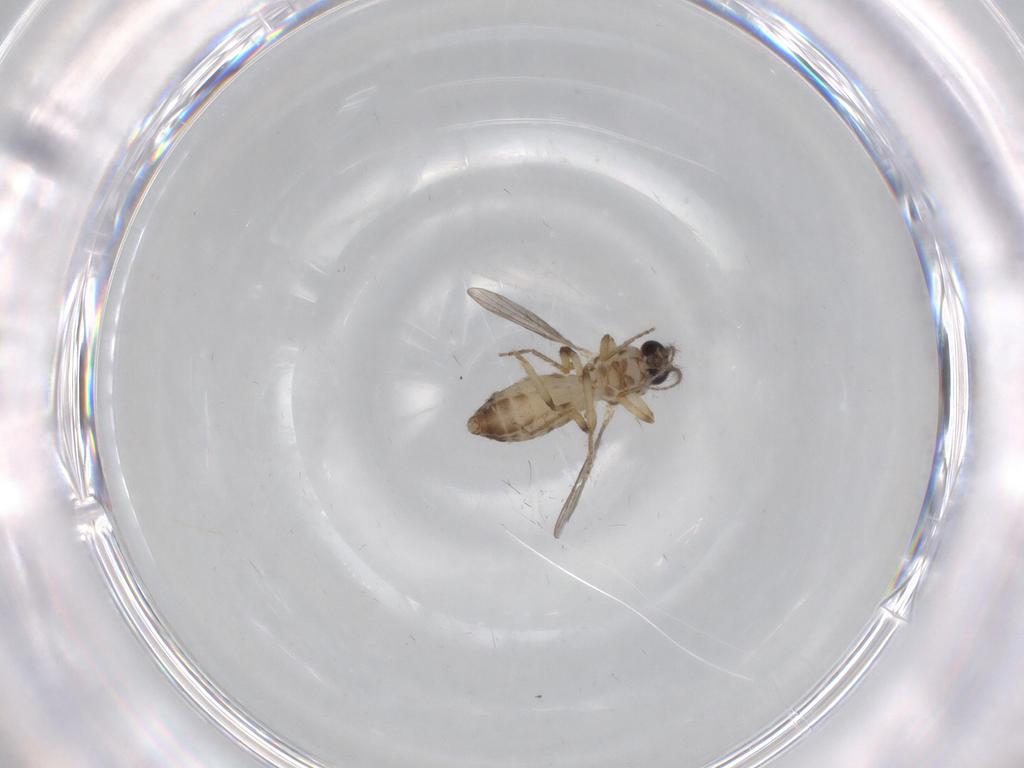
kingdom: Animalia
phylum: Arthropoda
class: Insecta
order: Diptera
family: Ceratopogonidae
